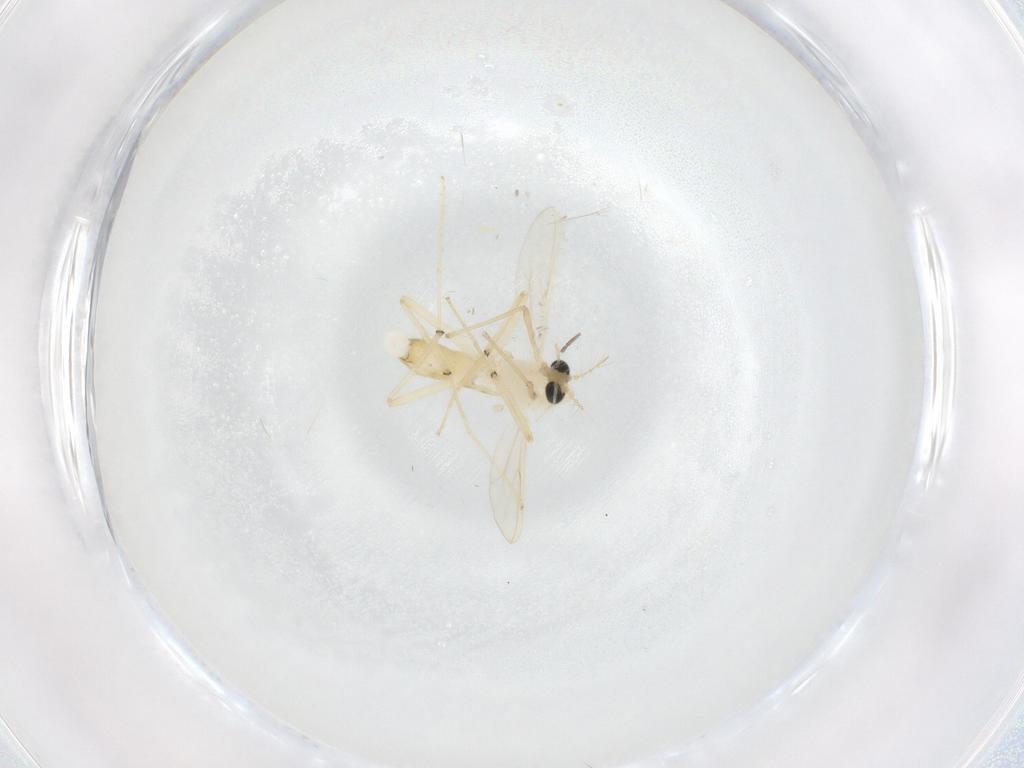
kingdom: Animalia
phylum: Arthropoda
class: Insecta
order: Diptera
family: Chironomidae
